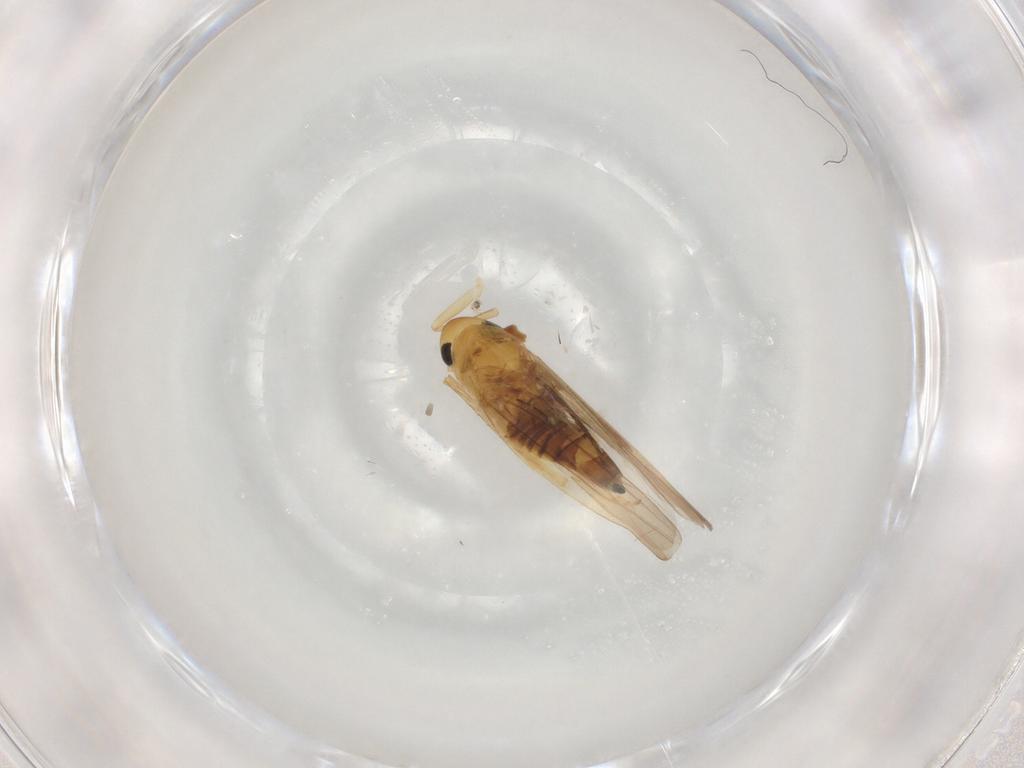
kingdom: Animalia
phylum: Arthropoda
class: Insecta
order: Hemiptera
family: Cicadellidae
